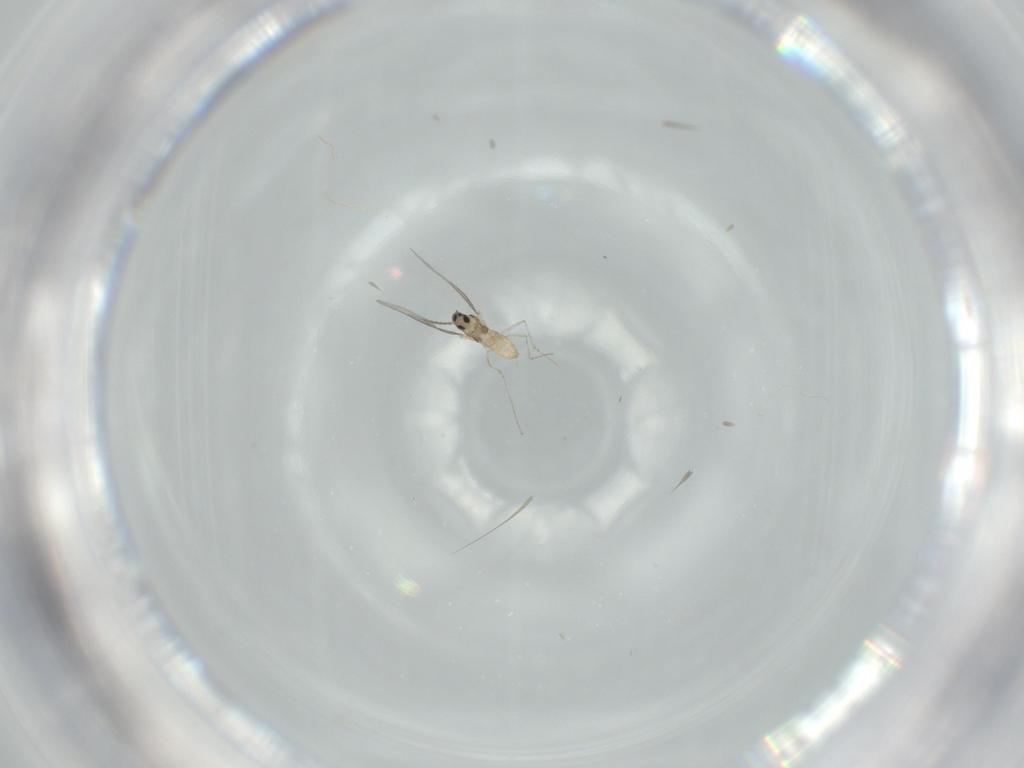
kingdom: Animalia
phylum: Arthropoda
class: Insecta
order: Diptera
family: Cecidomyiidae
